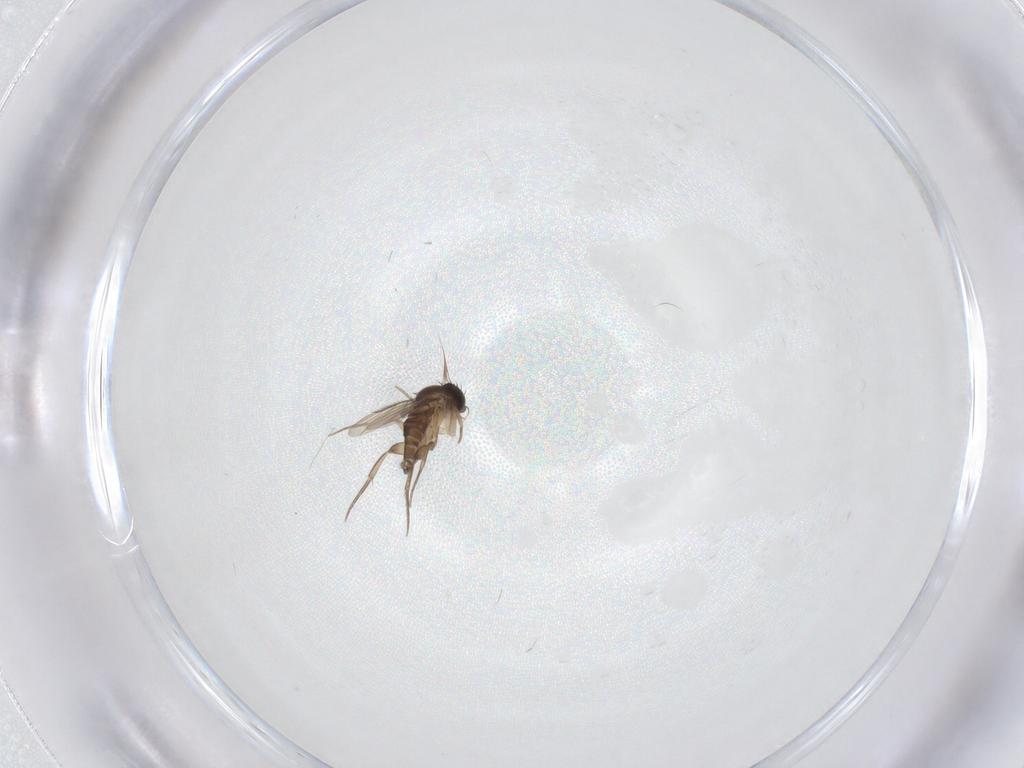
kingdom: Animalia
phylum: Arthropoda
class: Insecta
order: Diptera
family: Phoridae
